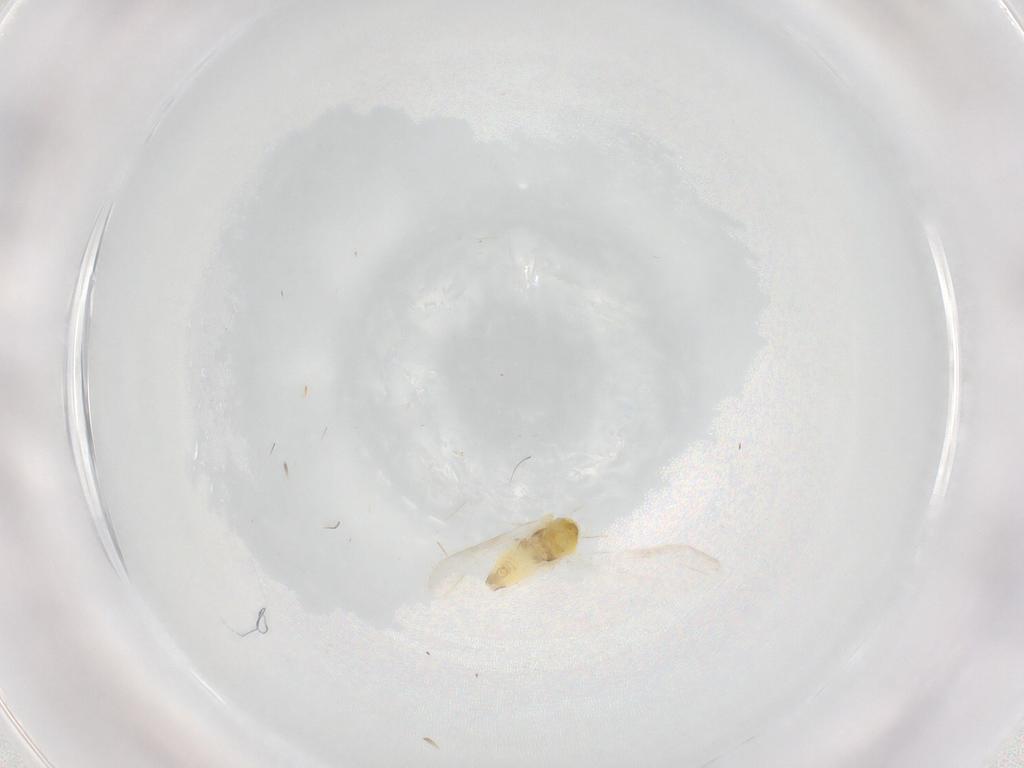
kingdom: Animalia
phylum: Arthropoda
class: Insecta
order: Hemiptera
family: Aleyrodidae
